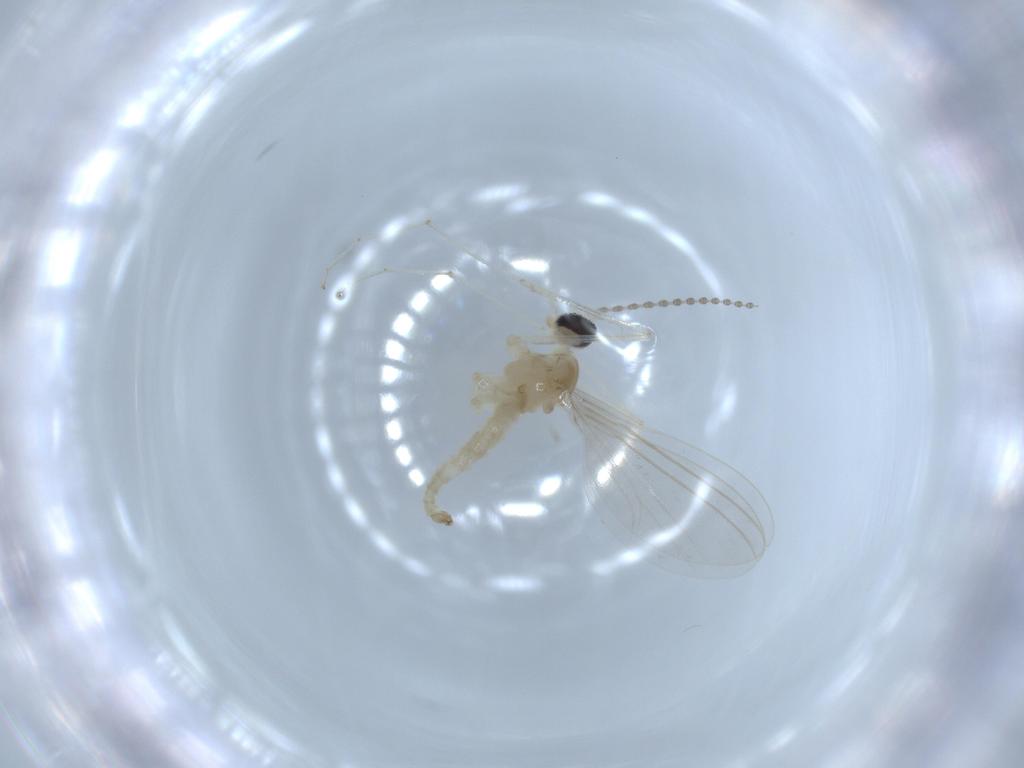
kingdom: Animalia
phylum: Arthropoda
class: Insecta
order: Diptera
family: Cecidomyiidae
